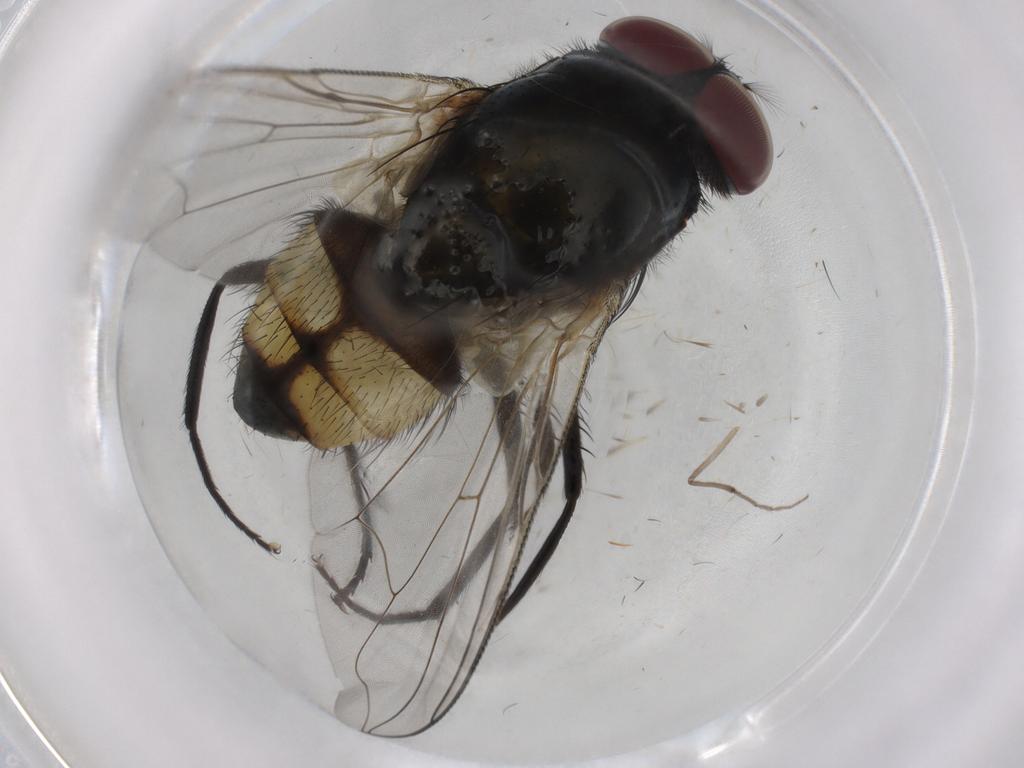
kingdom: Animalia
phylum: Arthropoda
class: Insecta
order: Diptera
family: Muscidae
